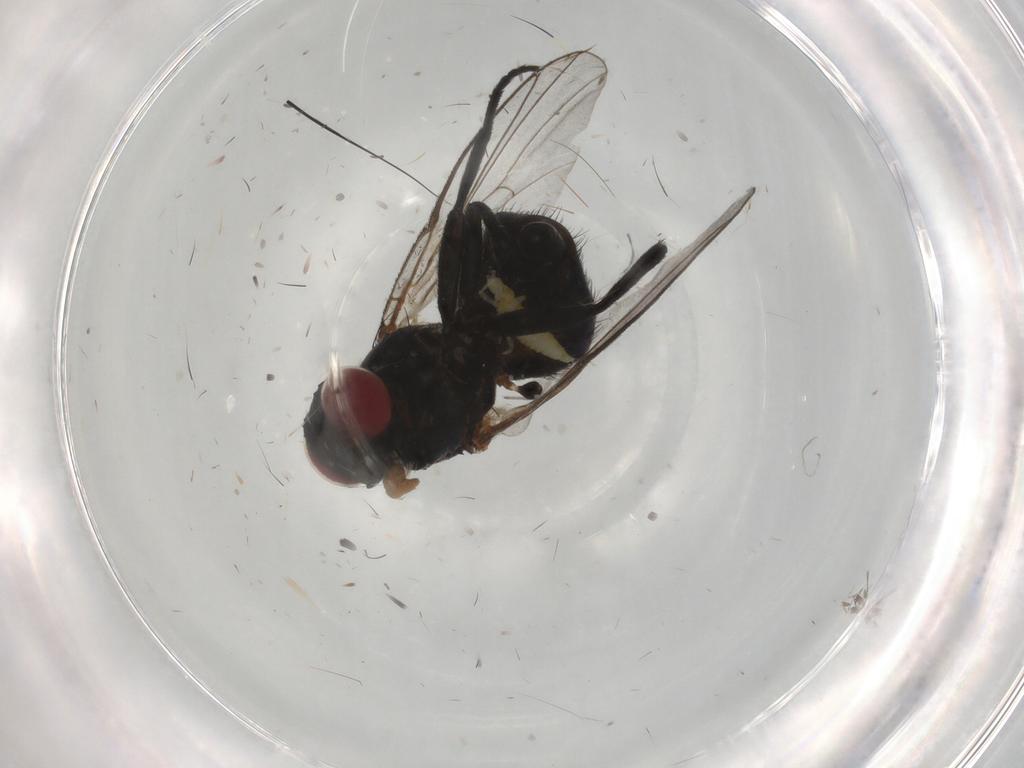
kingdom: Animalia
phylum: Arthropoda
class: Insecta
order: Diptera
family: Agromyzidae
